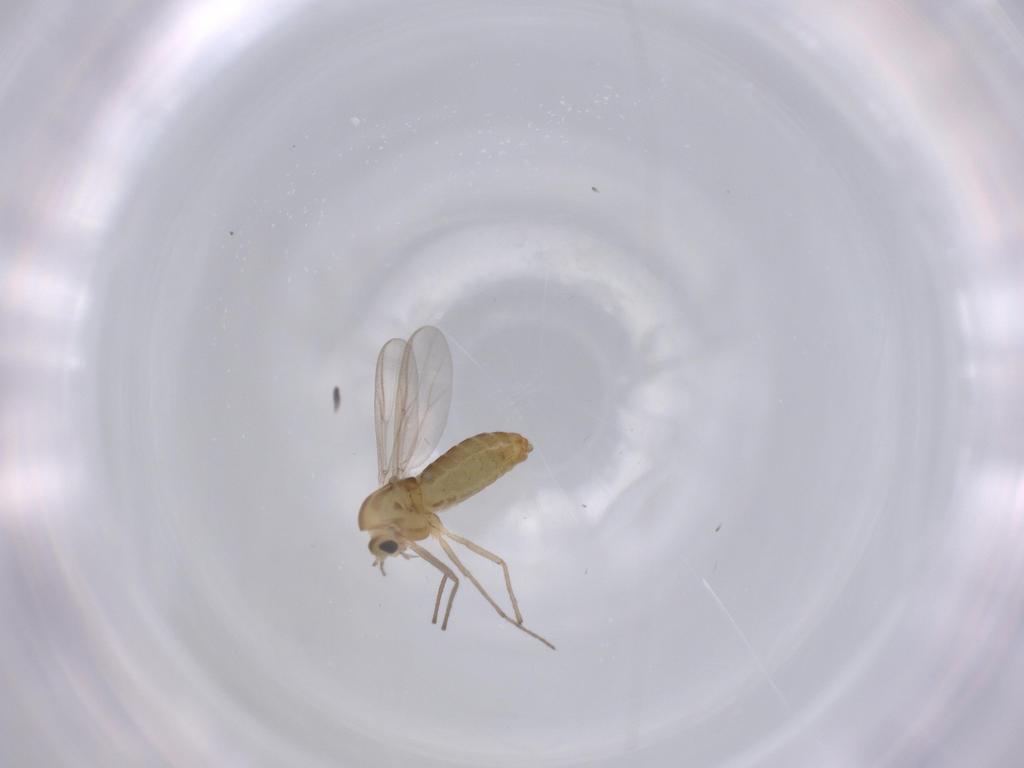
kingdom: Animalia
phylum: Arthropoda
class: Insecta
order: Diptera
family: Chironomidae
